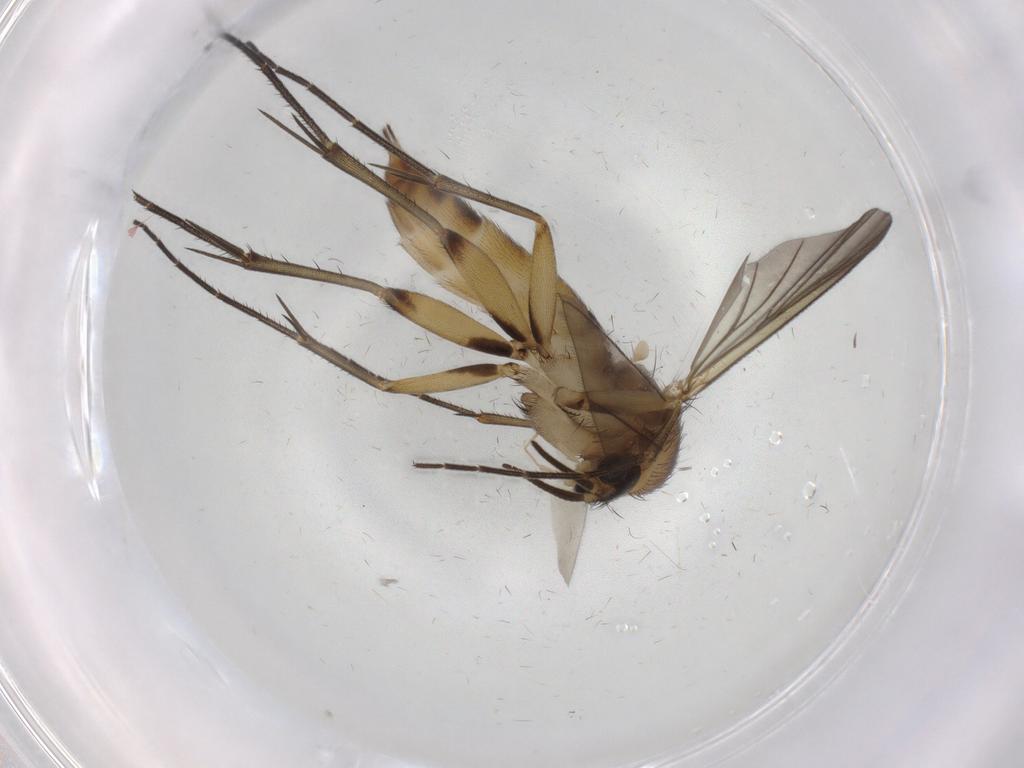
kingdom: Animalia
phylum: Arthropoda
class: Insecta
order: Diptera
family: Mycetophilidae
